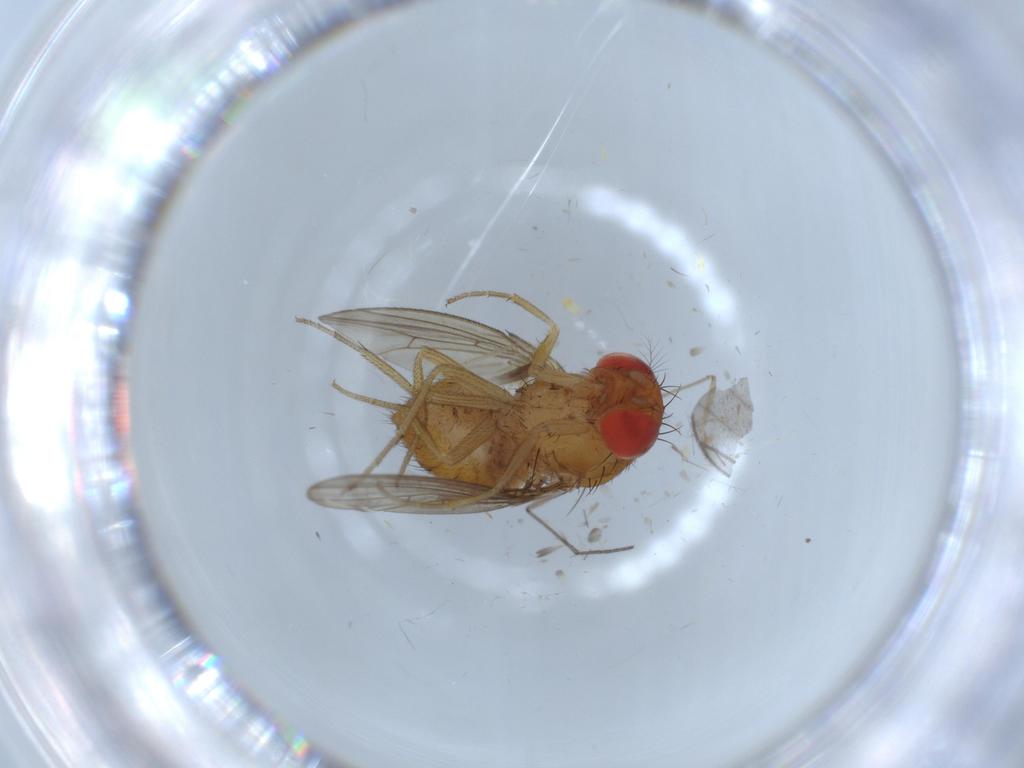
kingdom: Animalia
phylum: Arthropoda
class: Insecta
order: Diptera
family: Drosophilidae
